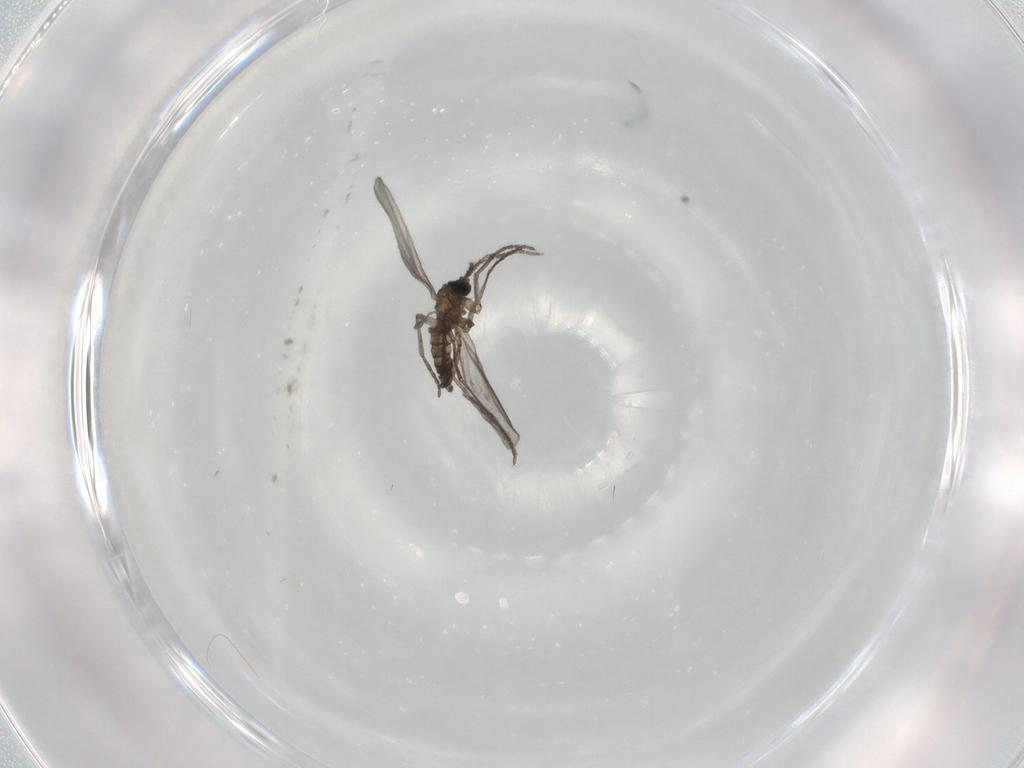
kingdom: Animalia
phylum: Arthropoda
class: Insecta
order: Diptera
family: Sciaridae
